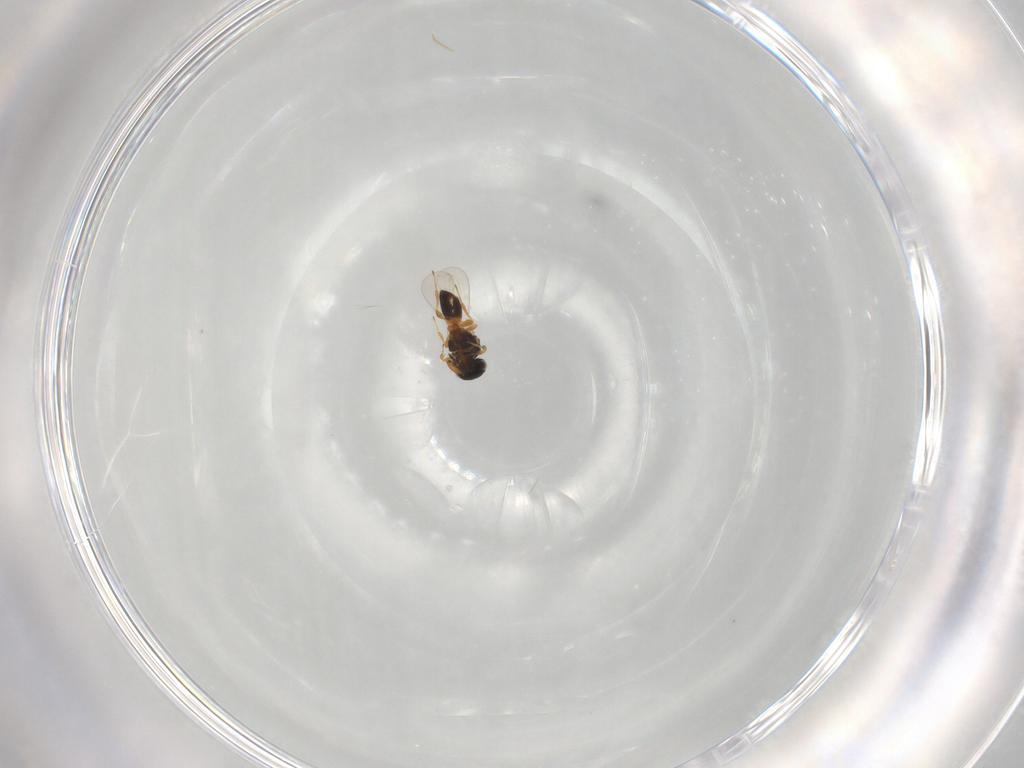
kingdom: Animalia
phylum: Arthropoda
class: Insecta
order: Hymenoptera
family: Platygastridae
